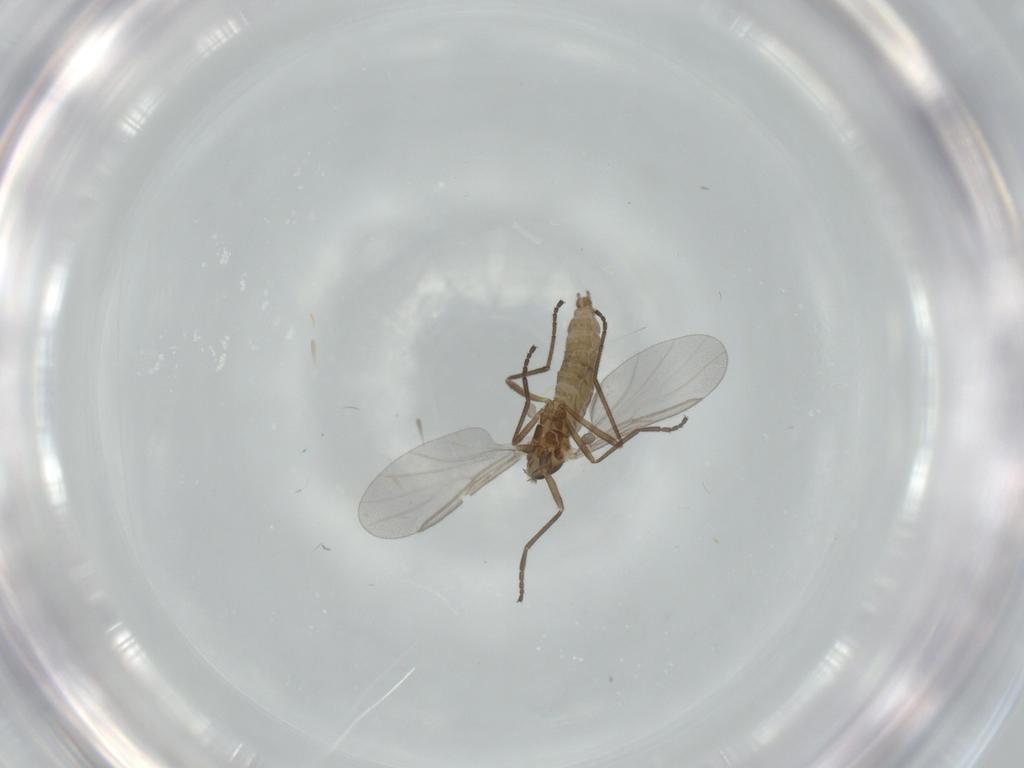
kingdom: Animalia
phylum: Arthropoda
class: Insecta
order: Diptera
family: Cecidomyiidae
